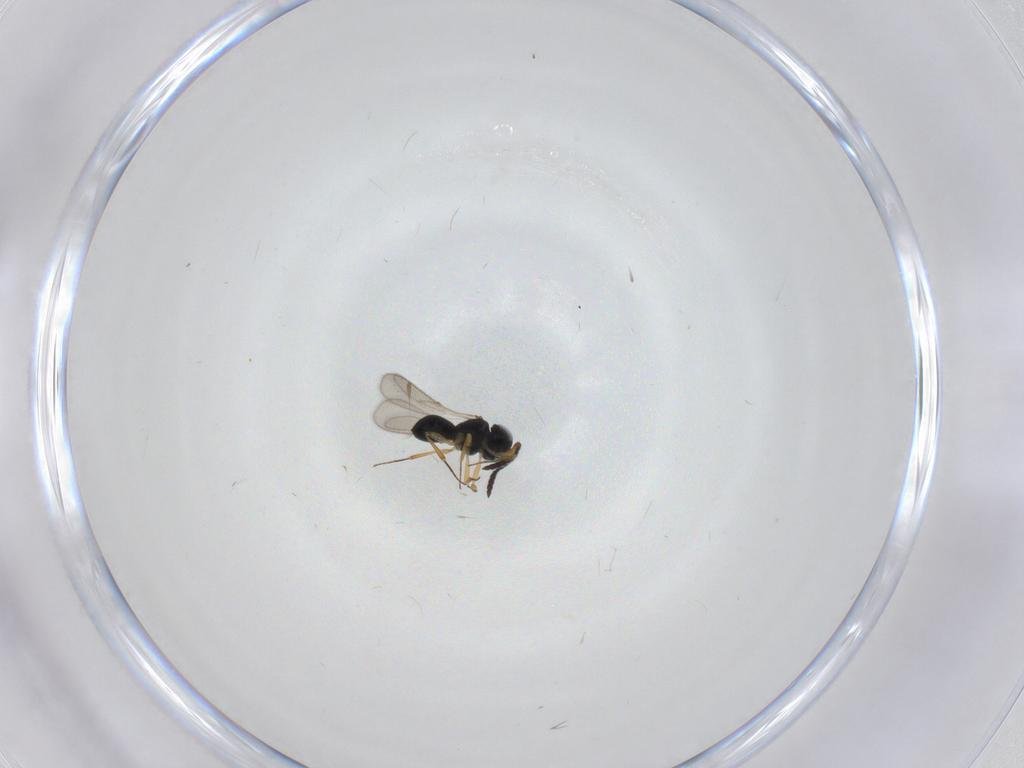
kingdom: Animalia
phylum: Arthropoda
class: Insecta
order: Hymenoptera
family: Scelionidae
